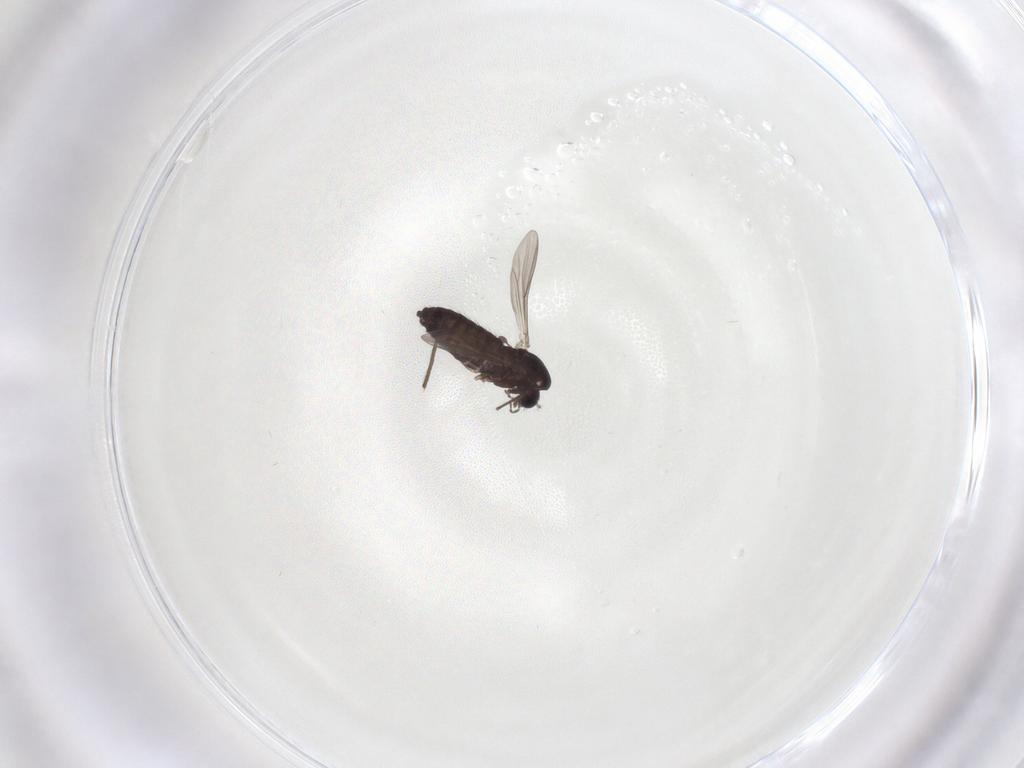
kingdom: Animalia
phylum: Arthropoda
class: Insecta
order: Diptera
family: Chironomidae
